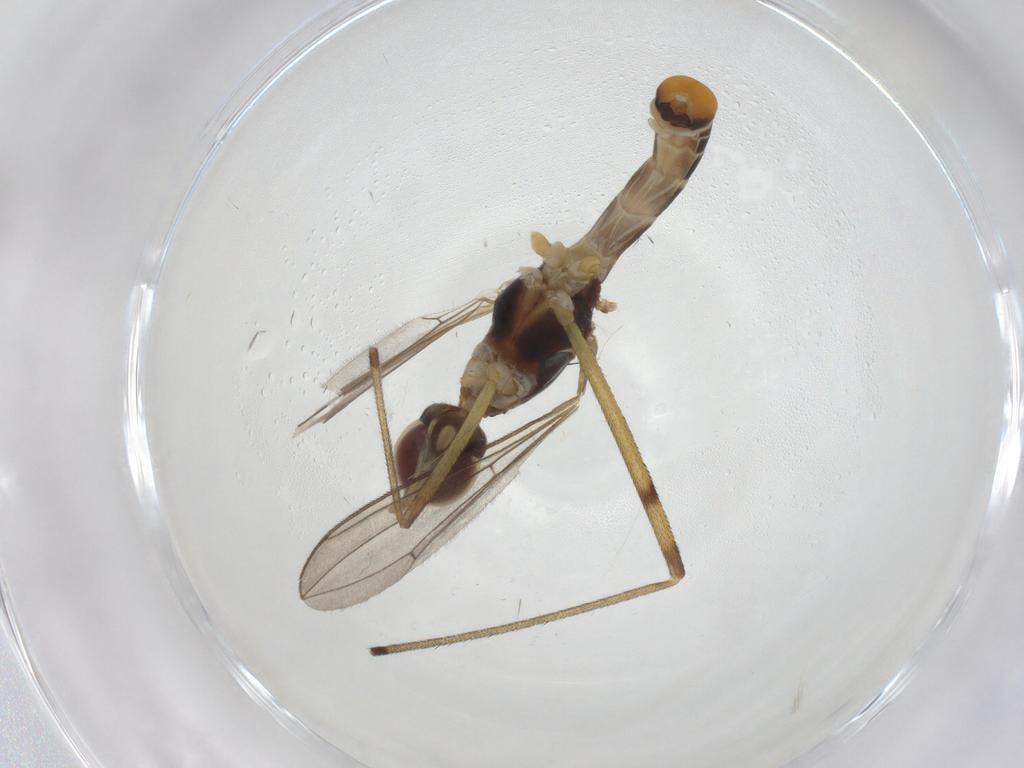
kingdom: Animalia
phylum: Arthropoda
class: Insecta
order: Diptera
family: Micropezidae
